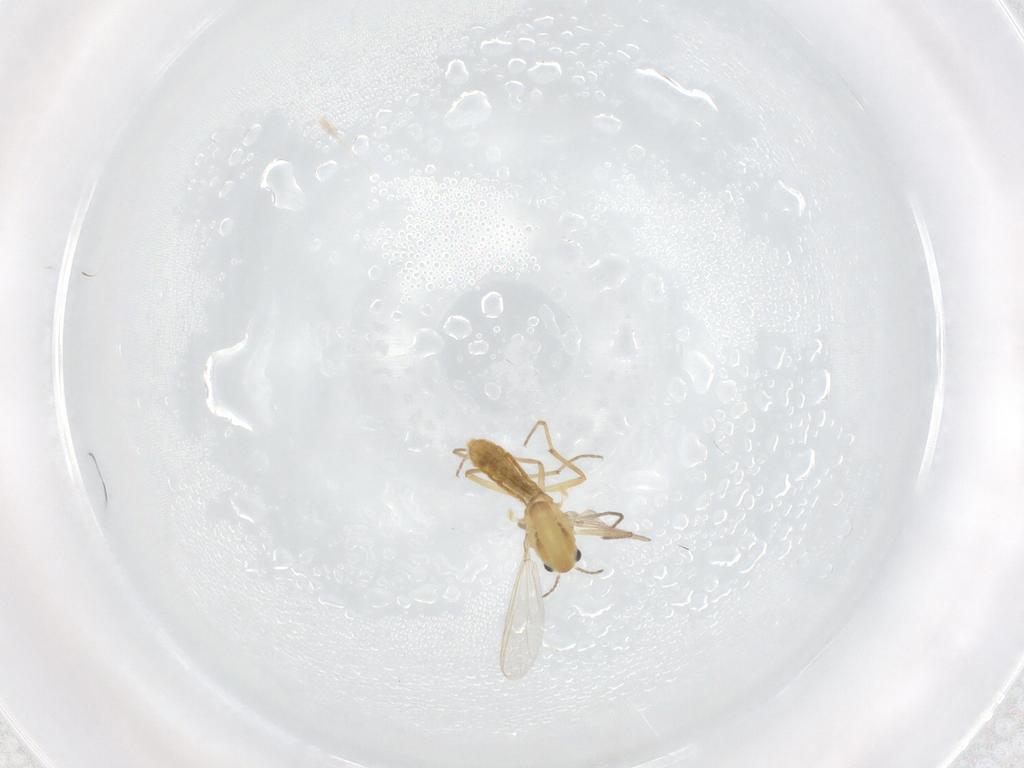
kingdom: Animalia
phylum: Arthropoda
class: Insecta
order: Diptera
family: Chironomidae
